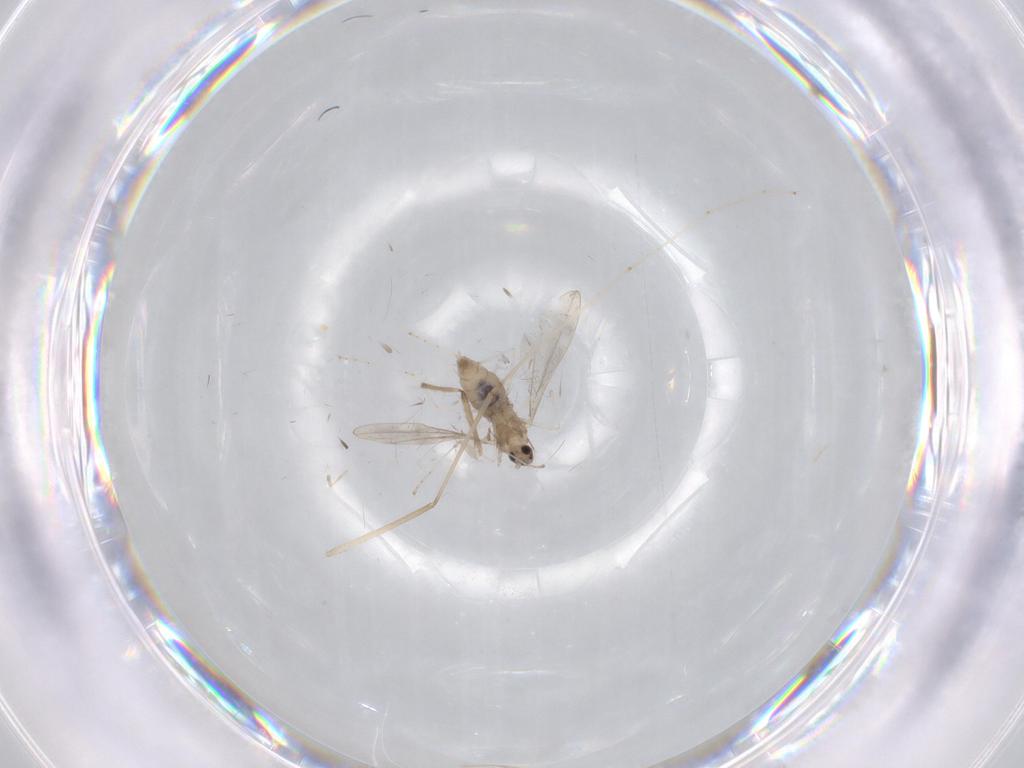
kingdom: Animalia
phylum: Arthropoda
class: Insecta
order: Diptera
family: Cecidomyiidae
